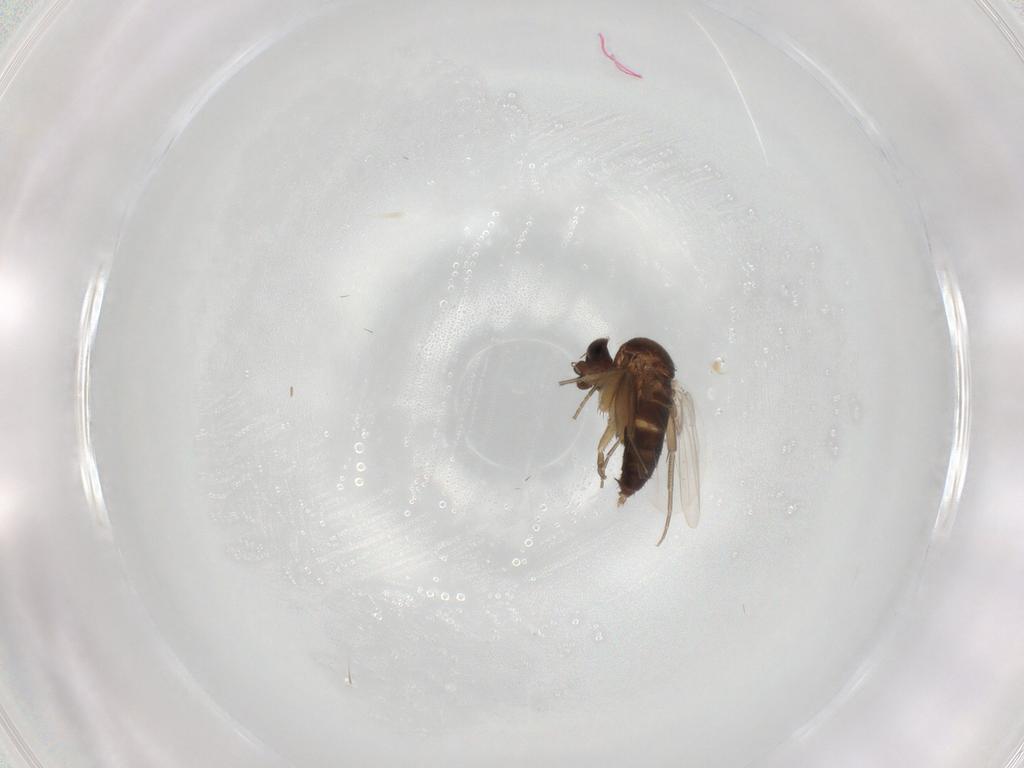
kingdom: Animalia
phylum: Arthropoda
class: Insecta
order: Diptera
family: Phoridae
